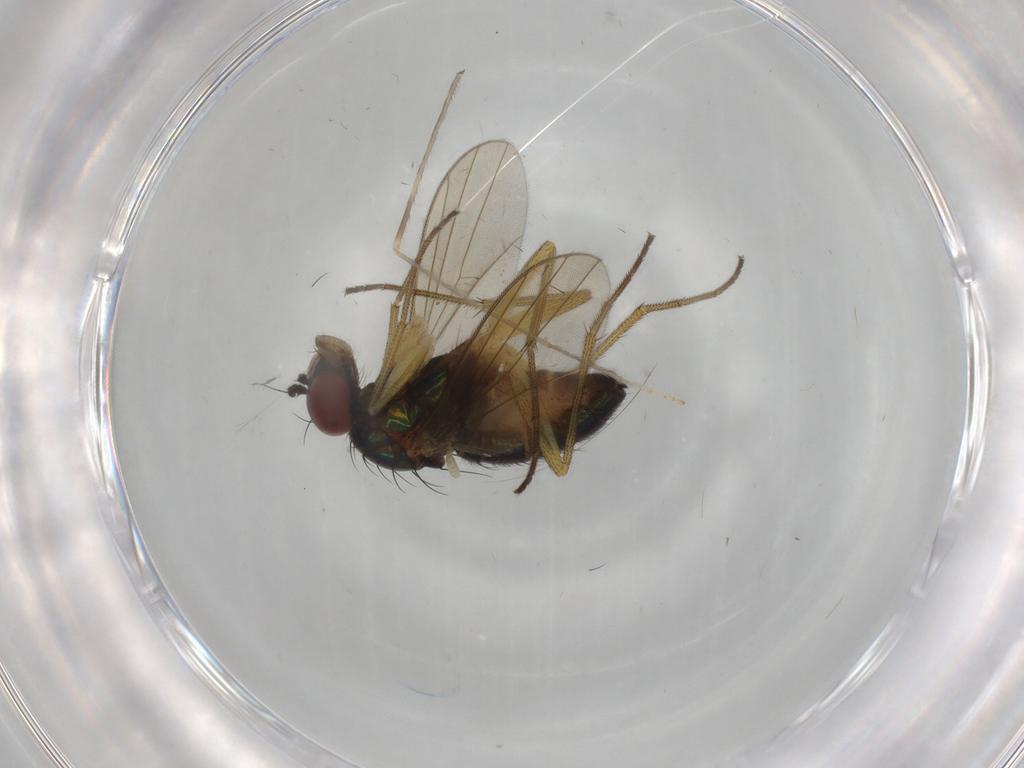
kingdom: Animalia
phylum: Arthropoda
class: Insecta
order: Diptera
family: Dolichopodidae
